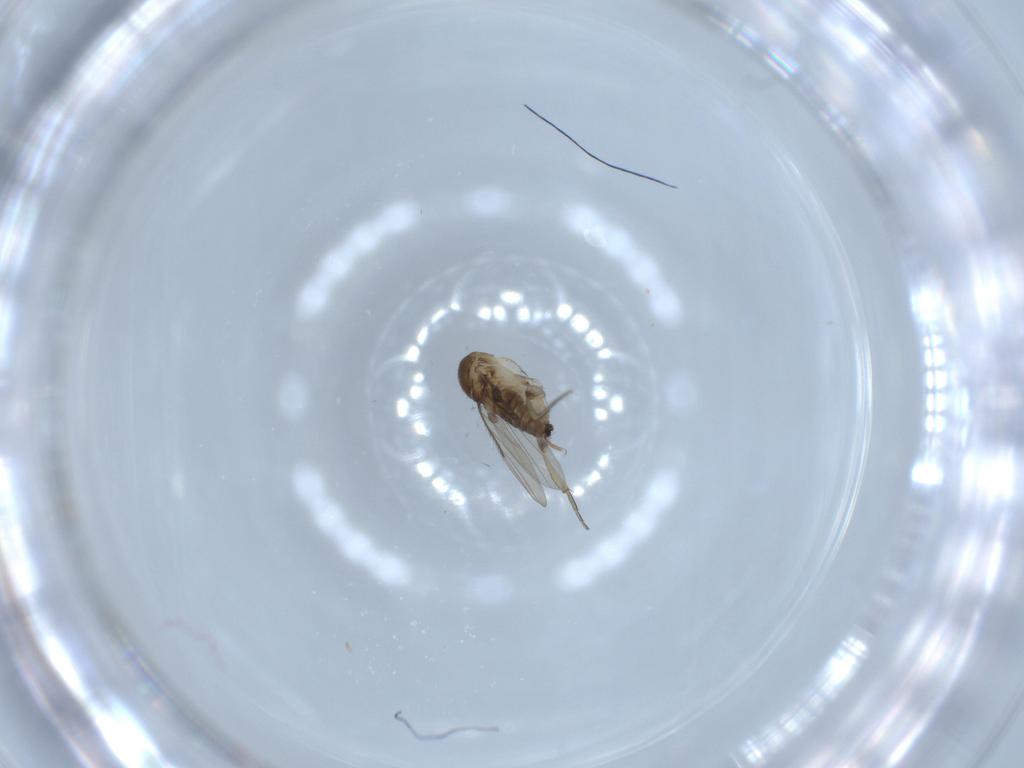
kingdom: Animalia
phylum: Arthropoda
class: Insecta
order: Diptera
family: Phoridae
